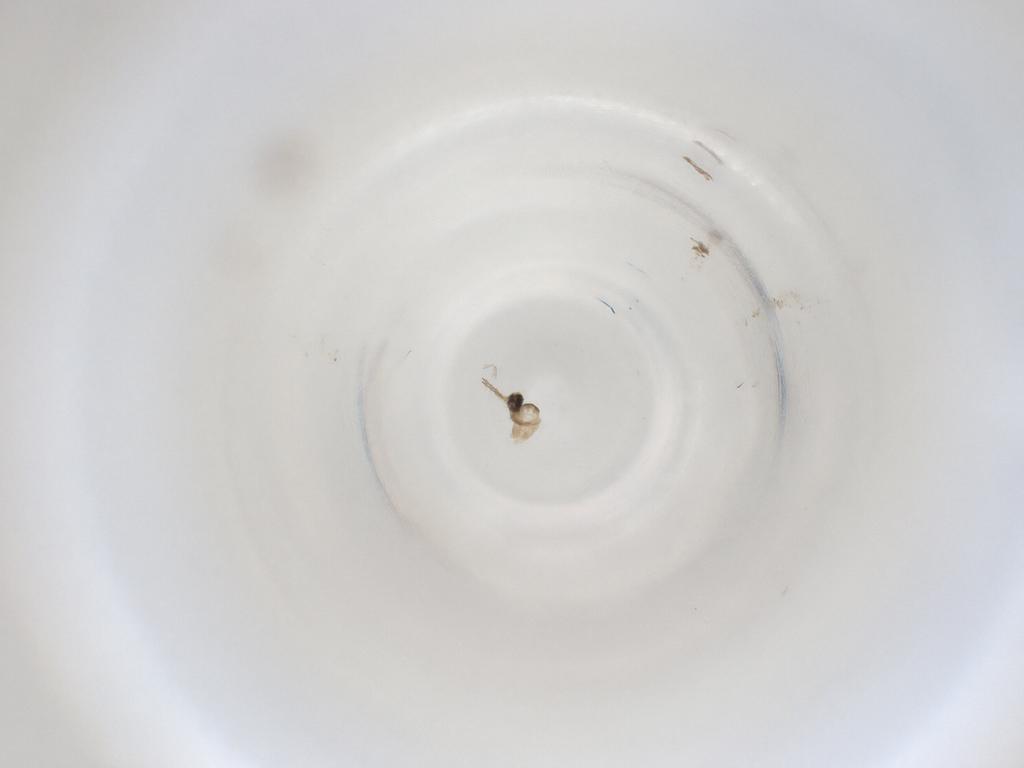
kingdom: Animalia
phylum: Arthropoda
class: Insecta
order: Diptera
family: Cecidomyiidae
